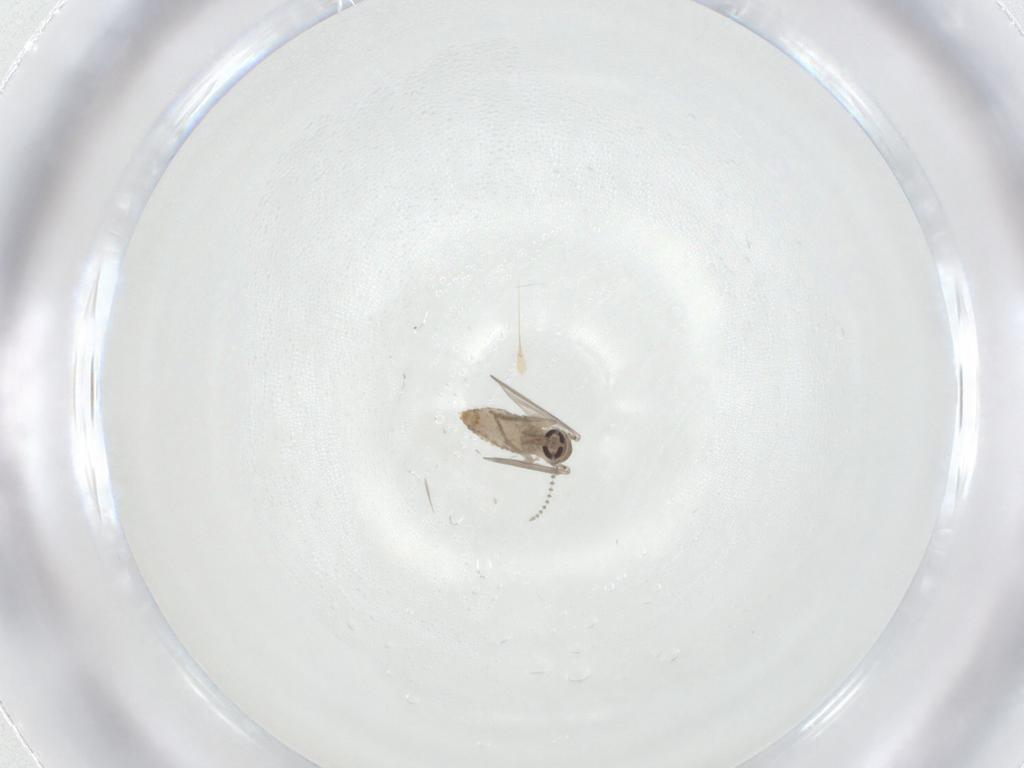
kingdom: Animalia
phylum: Arthropoda
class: Insecta
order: Diptera
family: Psychodidae
